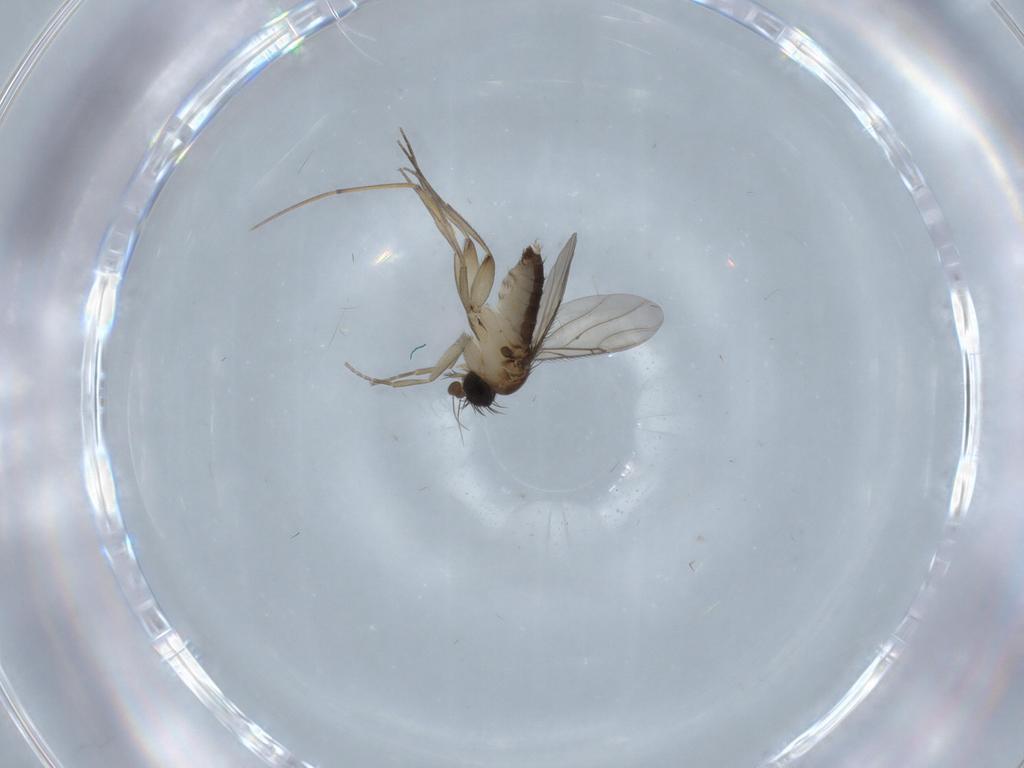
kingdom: Animalia
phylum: Arthropoda
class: Insecta
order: Diptera
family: Phoridae
